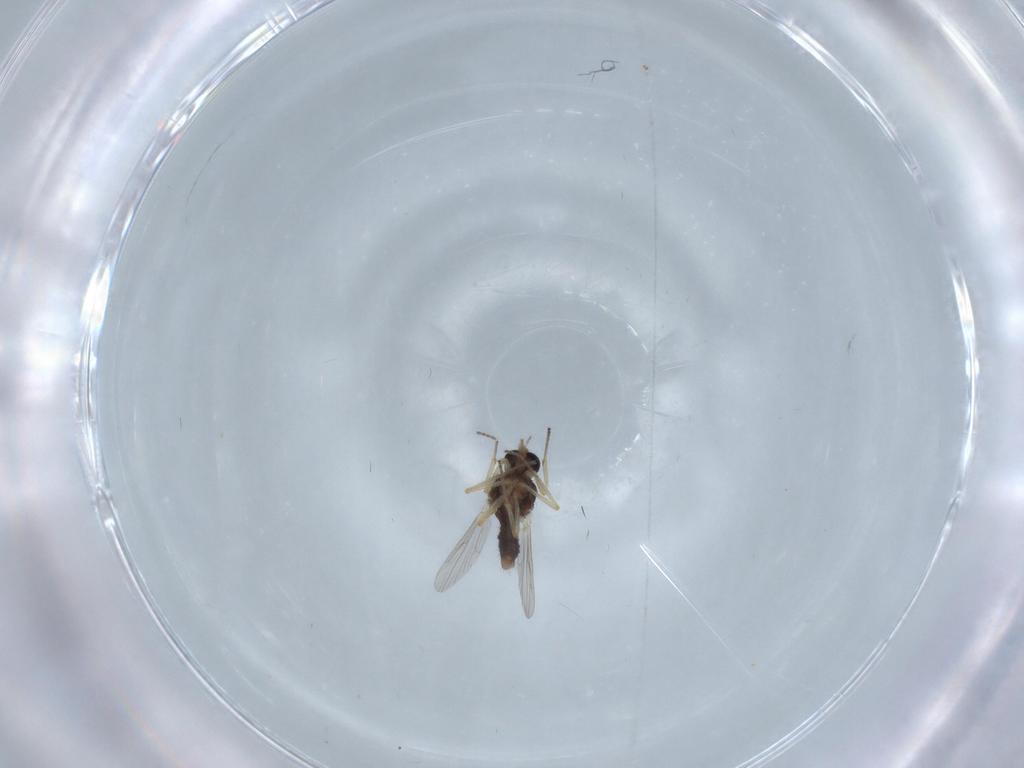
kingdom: Animalia
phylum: Arthropoda
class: Insecta
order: Diptera
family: Ceratopogonidae
